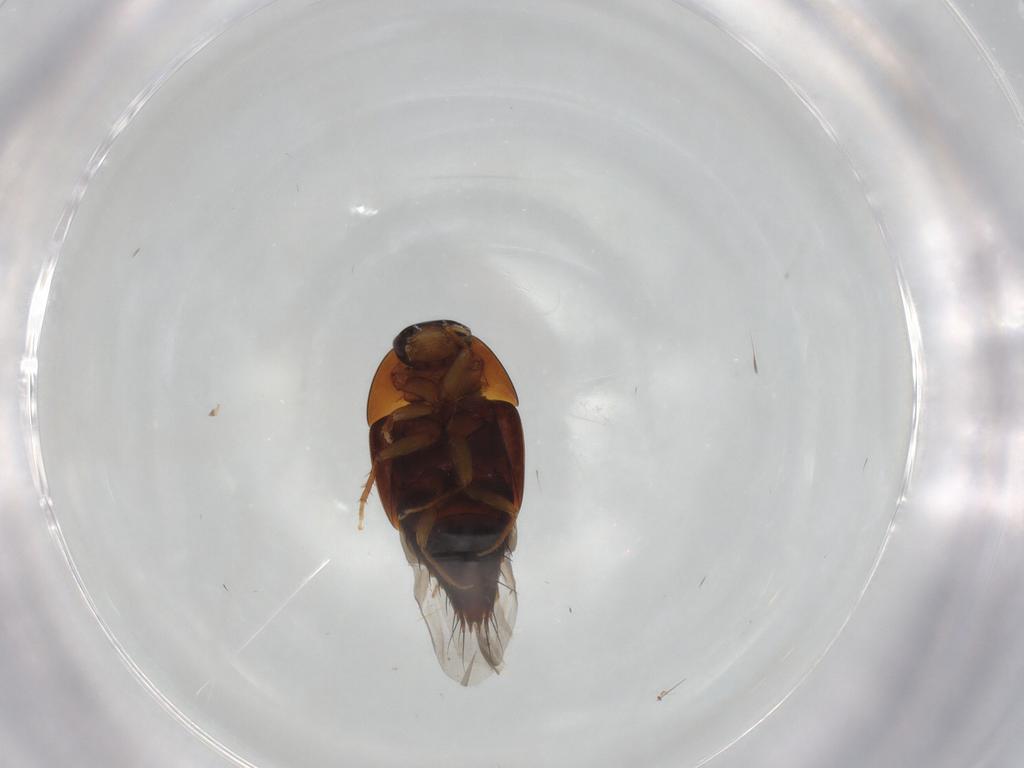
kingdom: Animalia
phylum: Arthropoda
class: Insecta
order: Coleoptera
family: Staphylinidae
